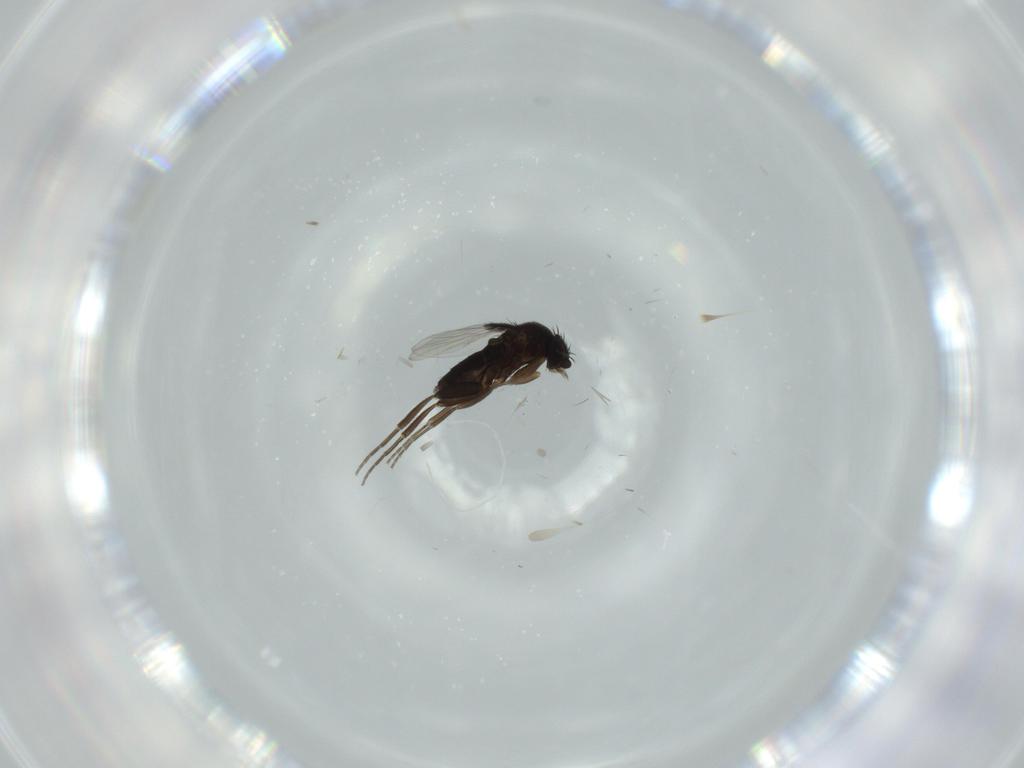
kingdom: Animalia
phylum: Arthropoda
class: Insecta
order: Diptera
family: Phoridae
